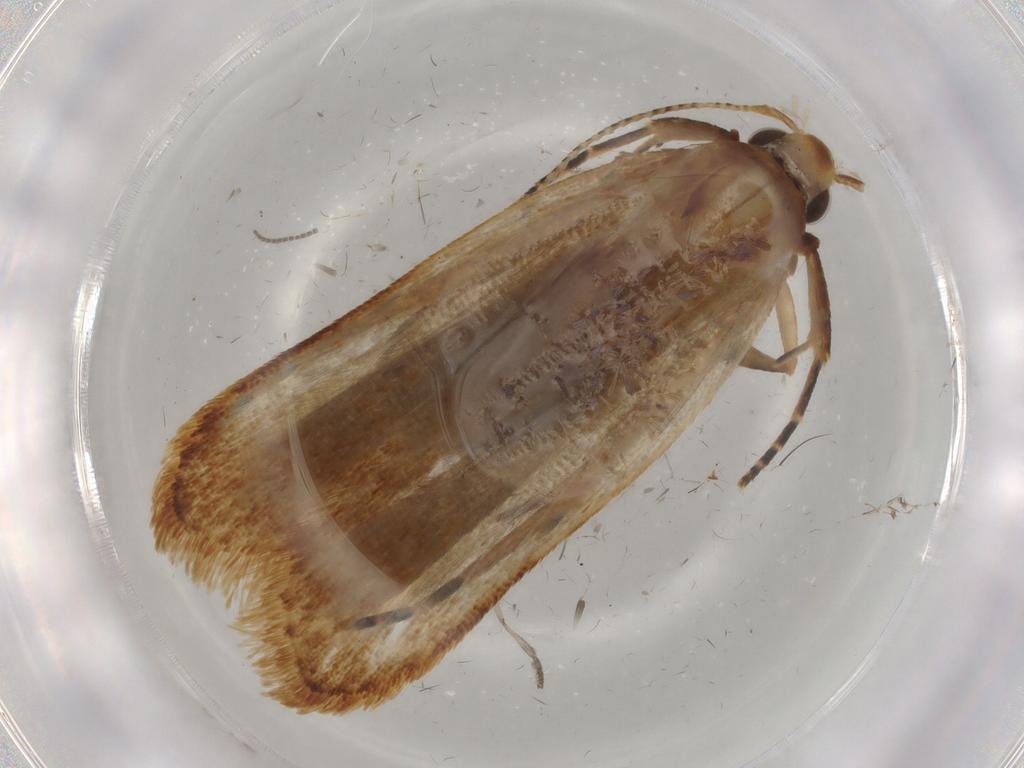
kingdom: Animalia
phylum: Arthropoda
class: Insecta
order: Lepidoptera
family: Gelechiidae
